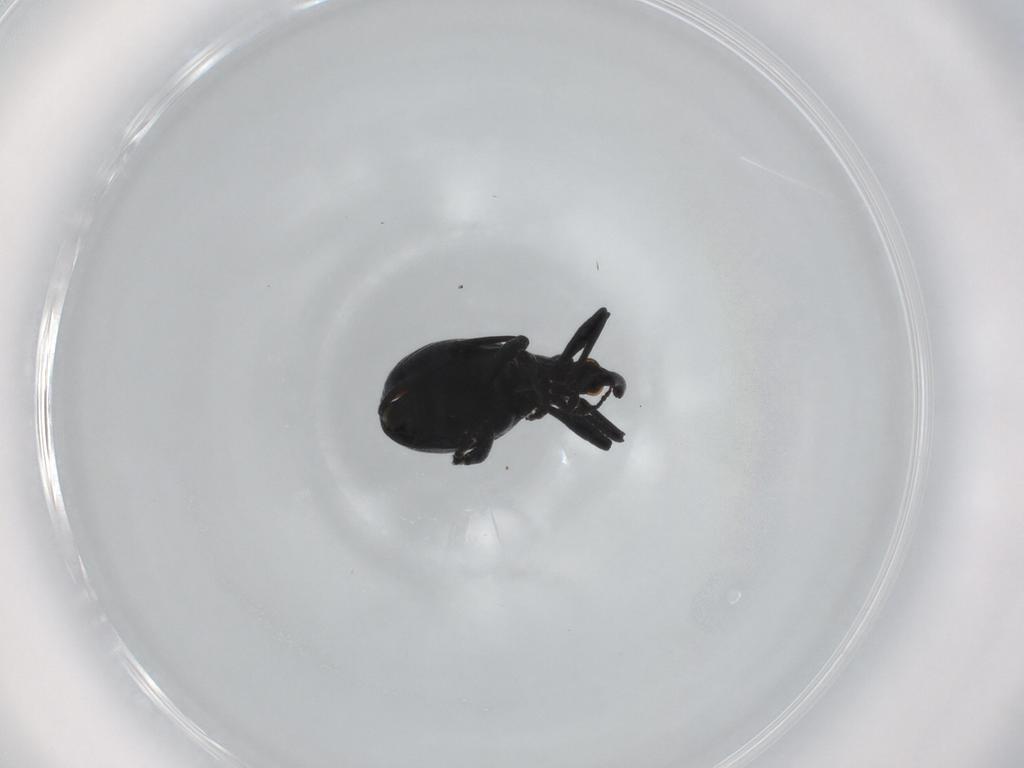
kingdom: Animalia
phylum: Arthropoda
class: Insecta
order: Coleoptera
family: Apionidae
